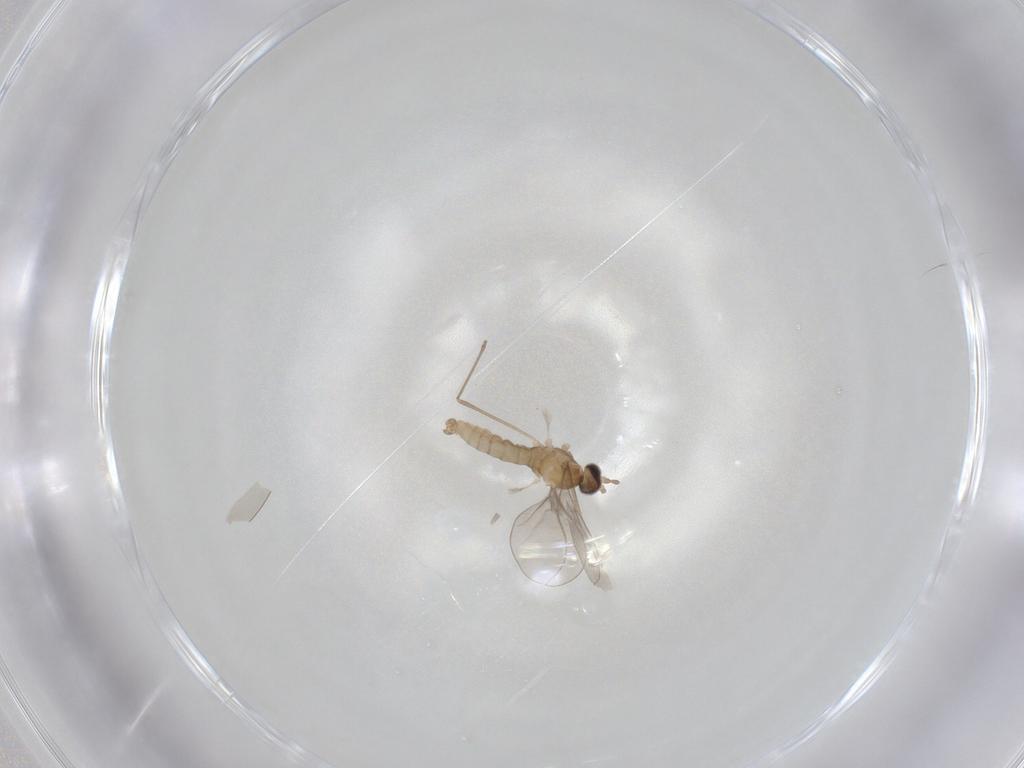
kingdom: Animalia
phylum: Arthropoda
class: Insecta
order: Diptera
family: Cecidomyiidae
